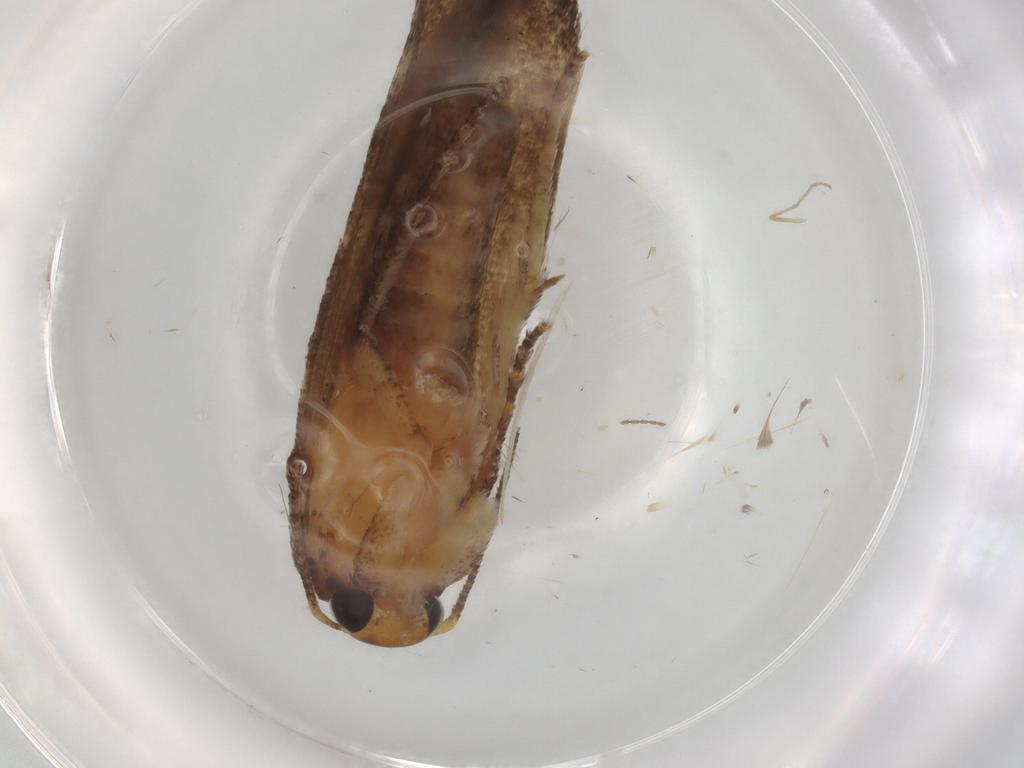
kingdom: Animalia
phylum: Arthropoda
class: Insecta
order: Lepidoptera
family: Gelechiidae
